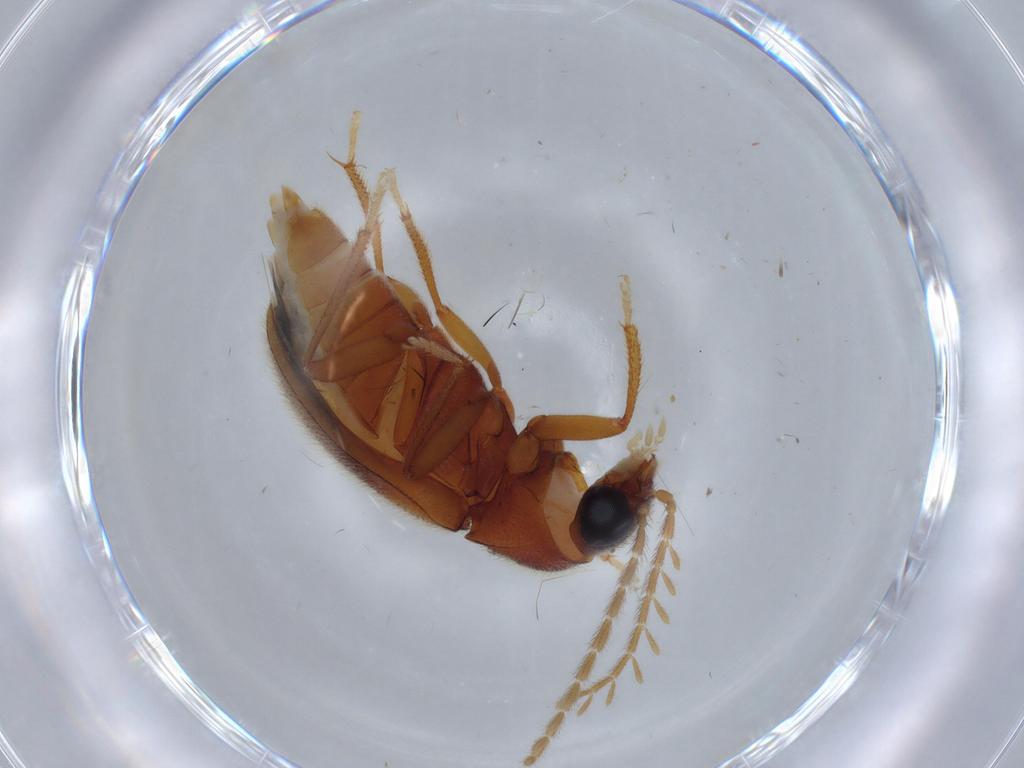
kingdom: Animalia
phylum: Arthropoda
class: Insecta
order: Coleoptera
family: Ptilodactylidae
